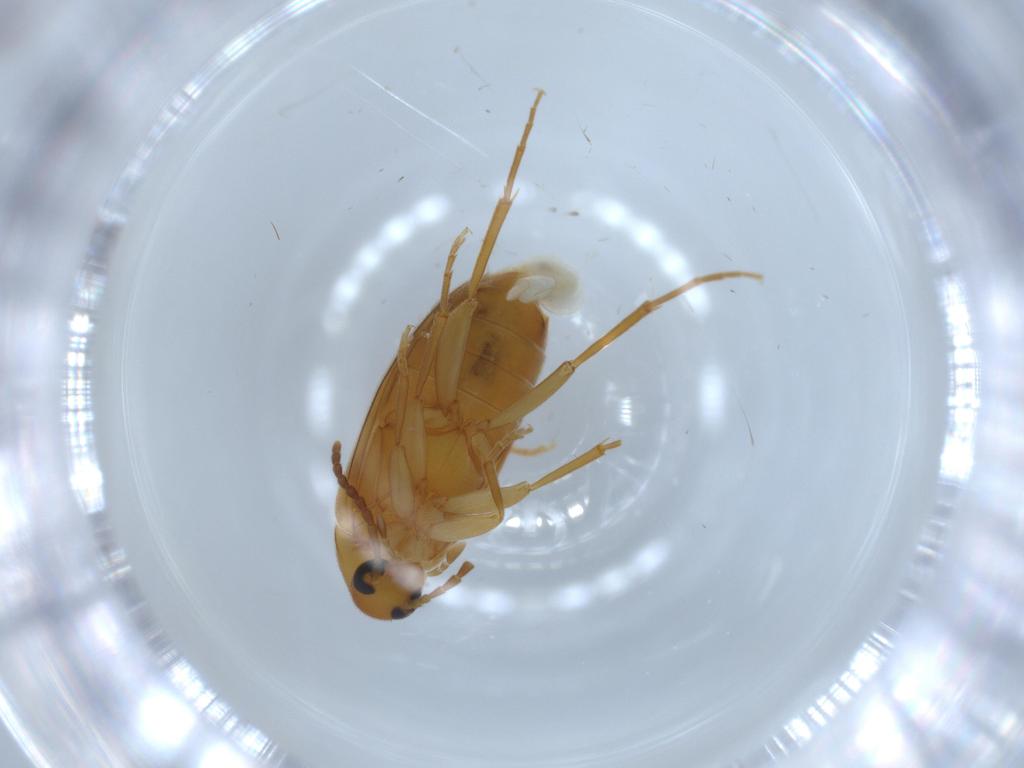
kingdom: Animalia
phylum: Arthropoda
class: Insecta
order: Coleoptera
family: Scraptiidae
